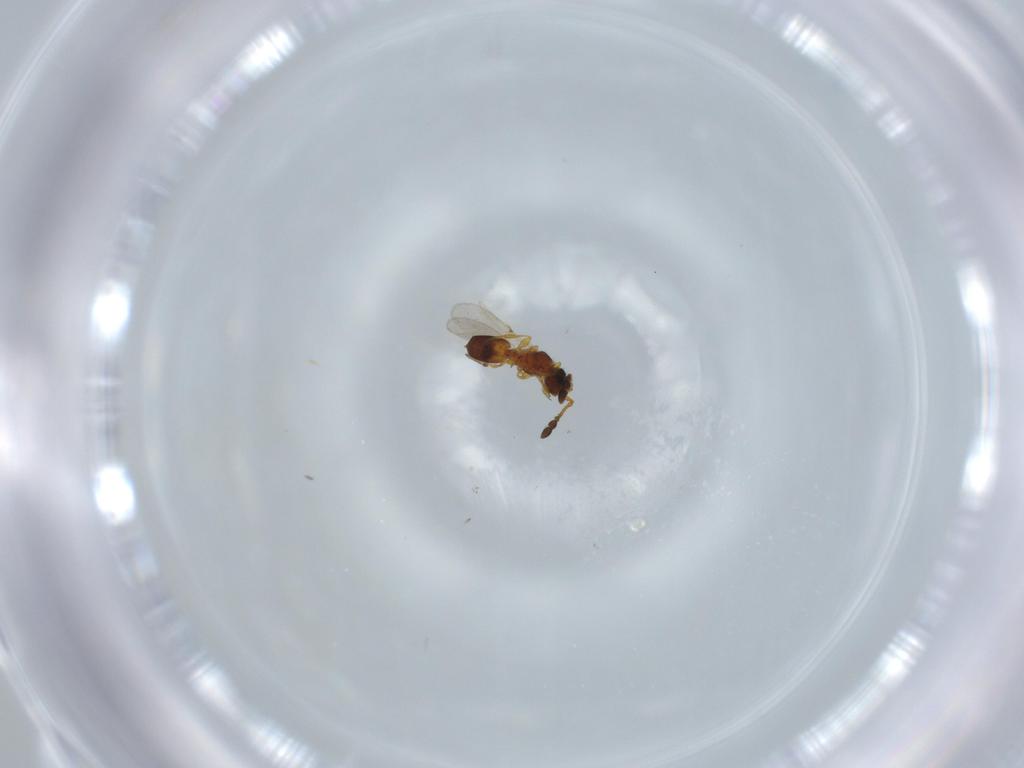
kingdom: Animalia
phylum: Arthropoda
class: Insecta
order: Hymenoptera
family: Diapriidae
